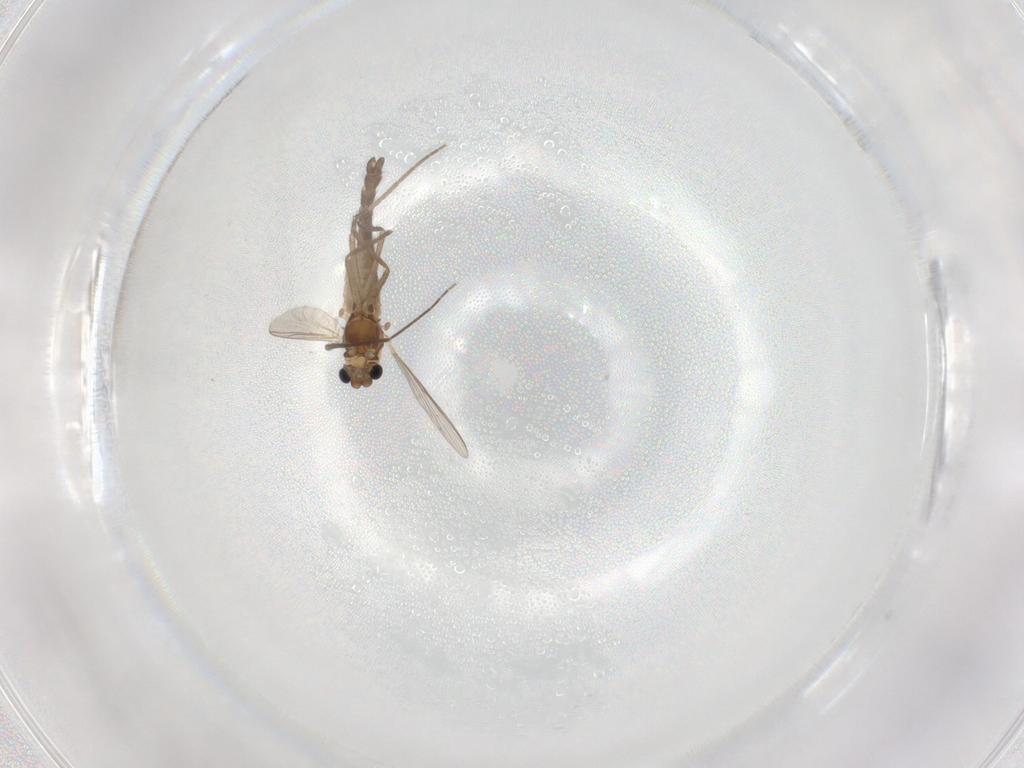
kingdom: Animalia
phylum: Arthropoda
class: Insecta
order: Diptera
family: Chironomidae
